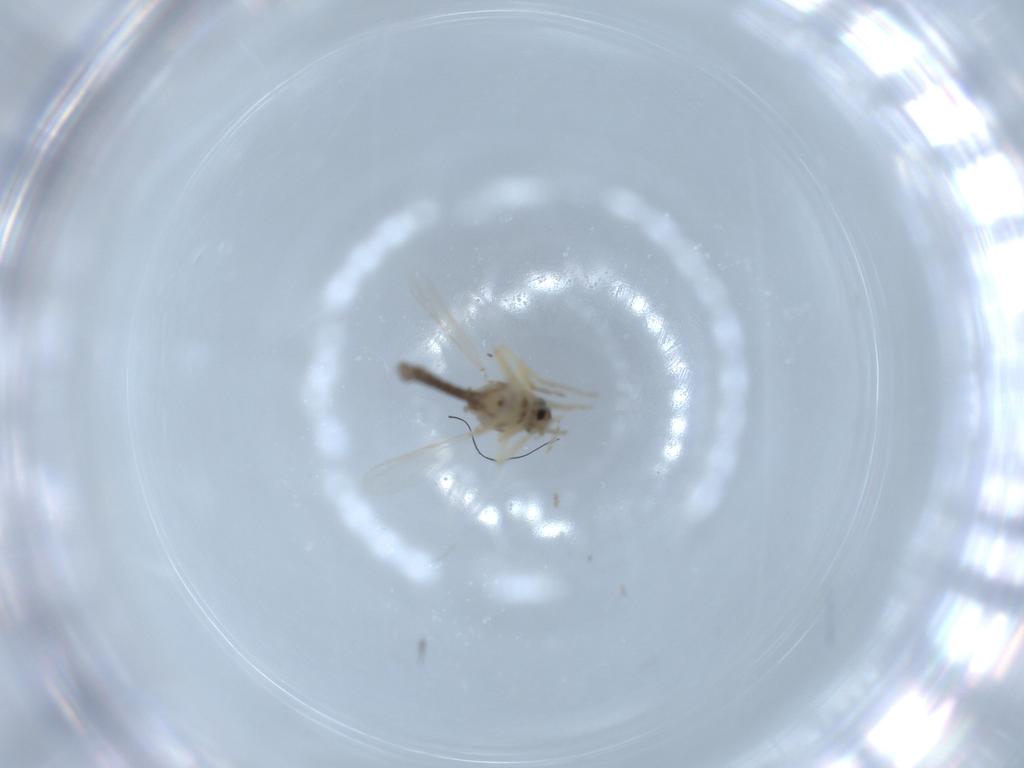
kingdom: Animalia
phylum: Arthropoda
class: Insecta
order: Diptera
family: Ceratopogonidae
